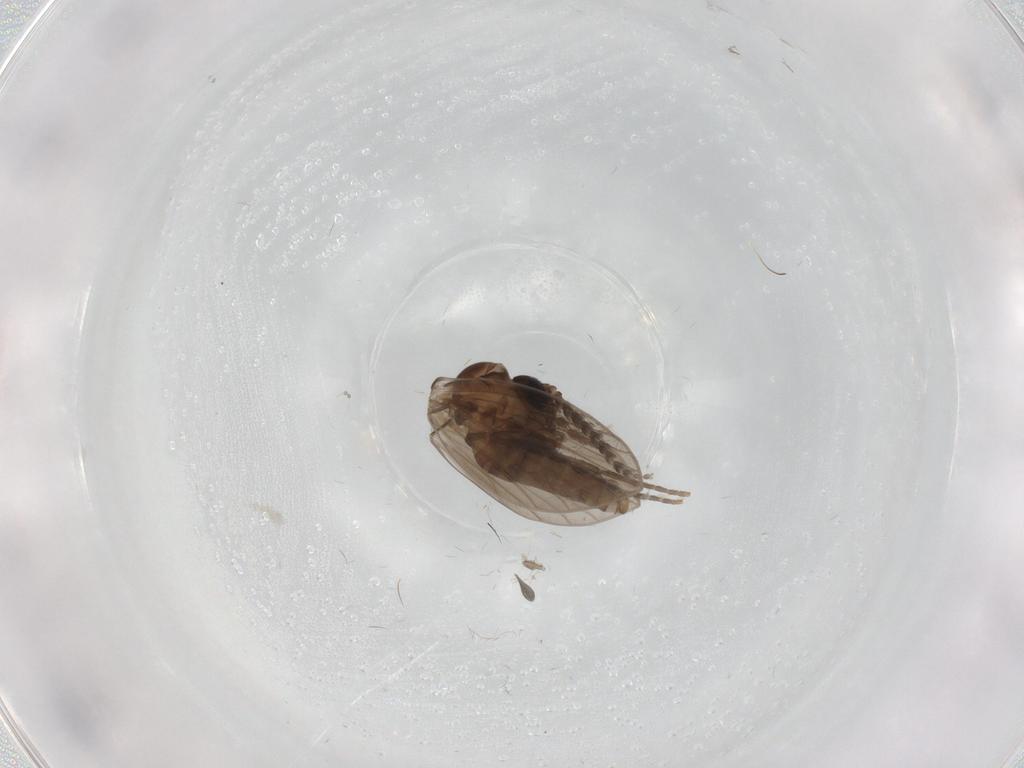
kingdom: Animalia
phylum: Arthropoda
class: Insecta
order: Diptera
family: Psychodidae
